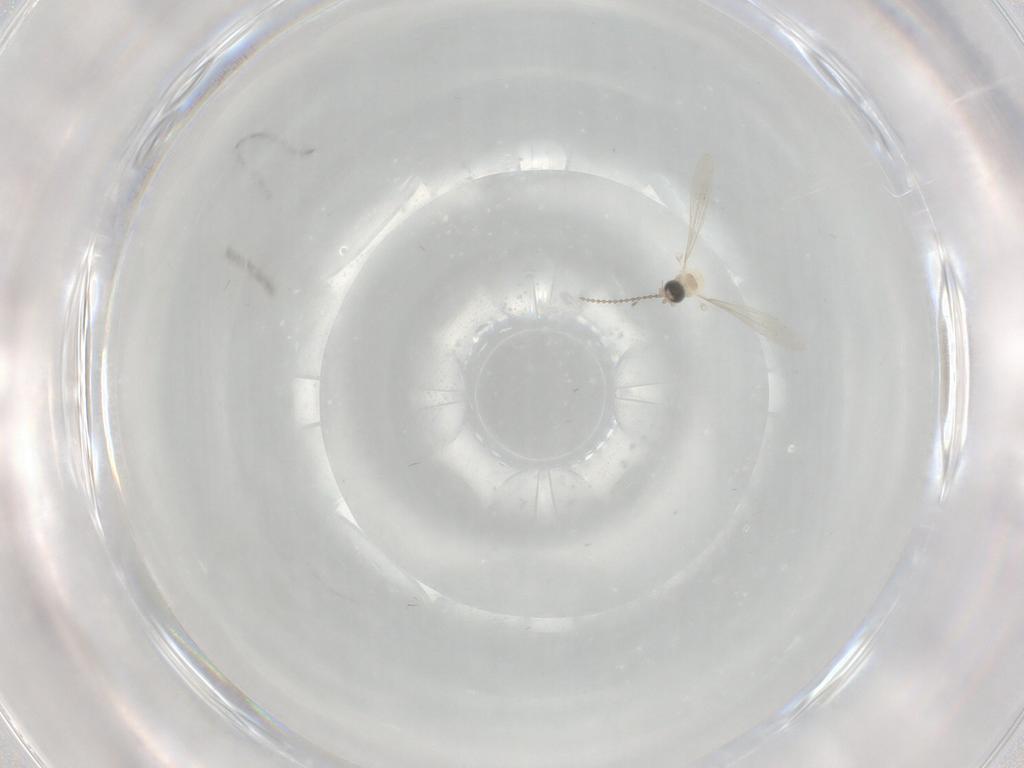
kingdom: Animalia
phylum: Arthropoda
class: Insecta
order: Diptera
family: Cecidomyiidae
